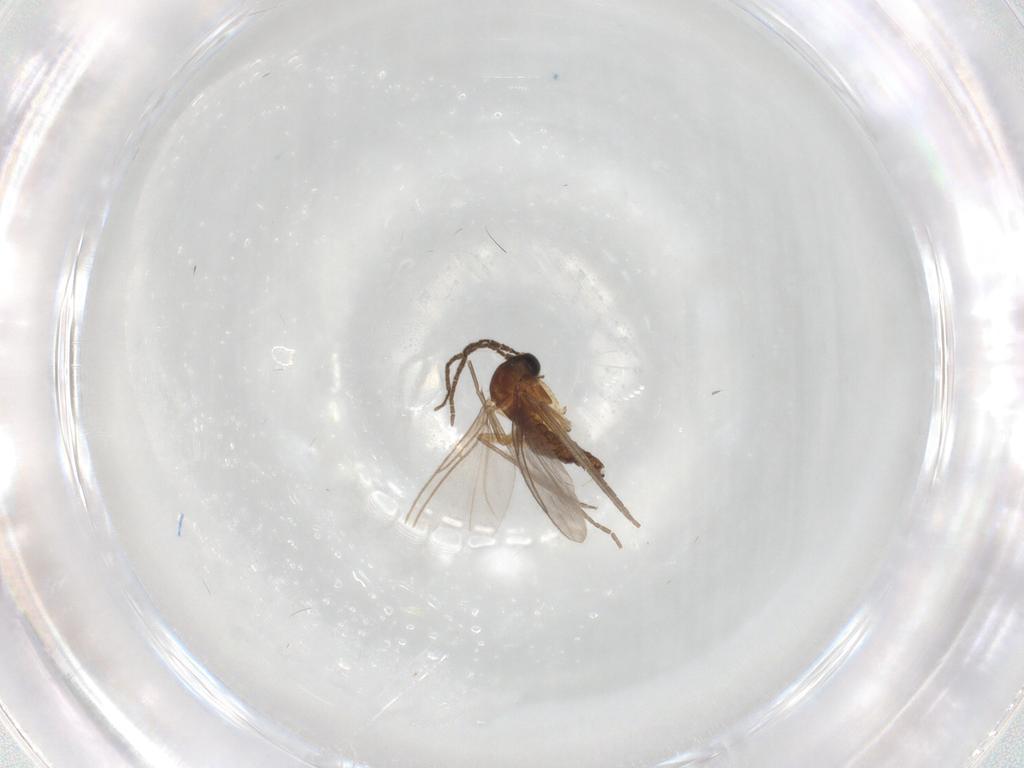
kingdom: Animalia
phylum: Arthropoda
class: Insecta
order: Diptera
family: Sciaridae
